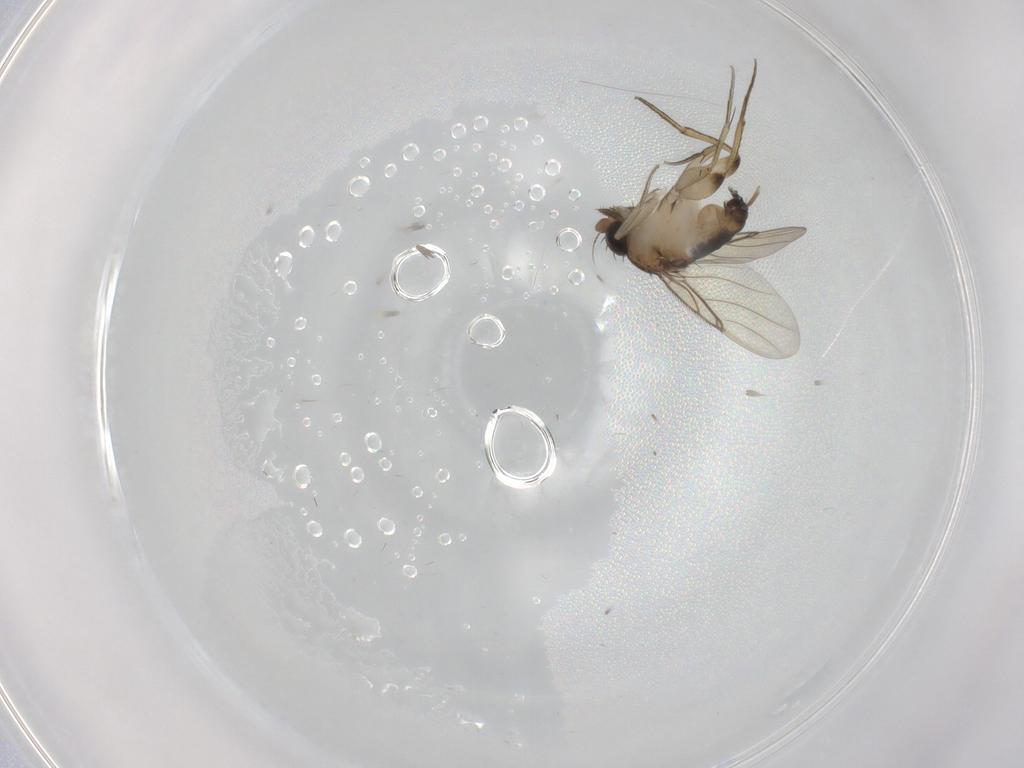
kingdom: Animalia
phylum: Arthropoda
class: Insecta
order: Diptera
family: Phoridae
